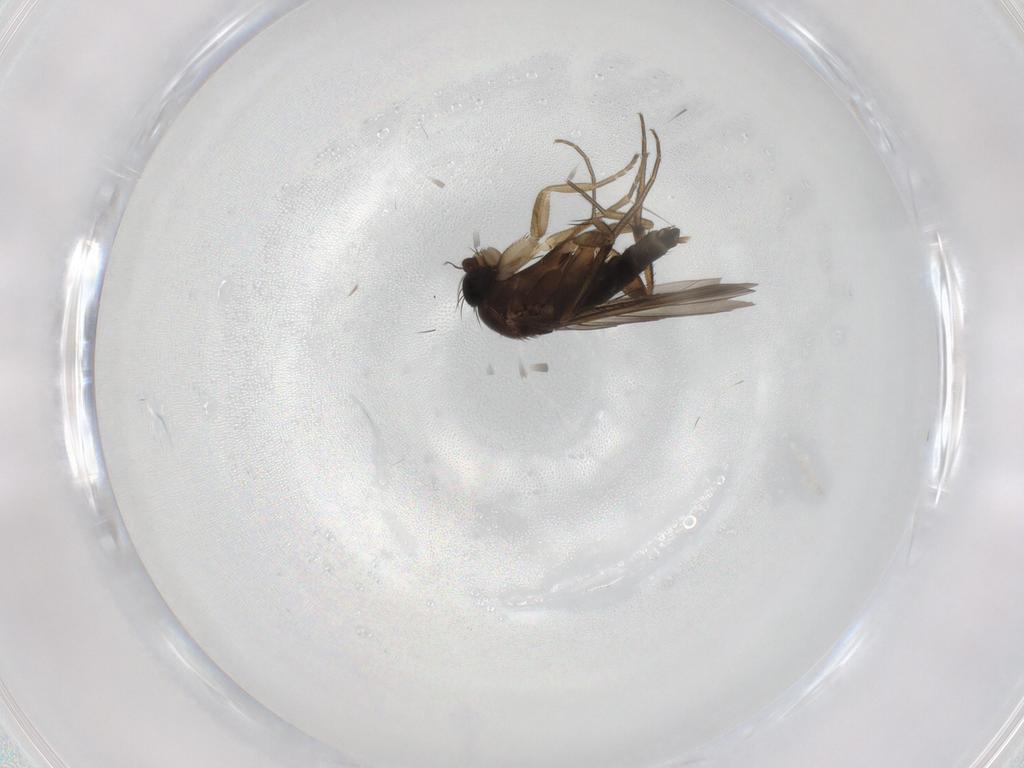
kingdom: Animalia
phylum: Arthropoda
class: Insecta
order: Diptera
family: Phoridae
